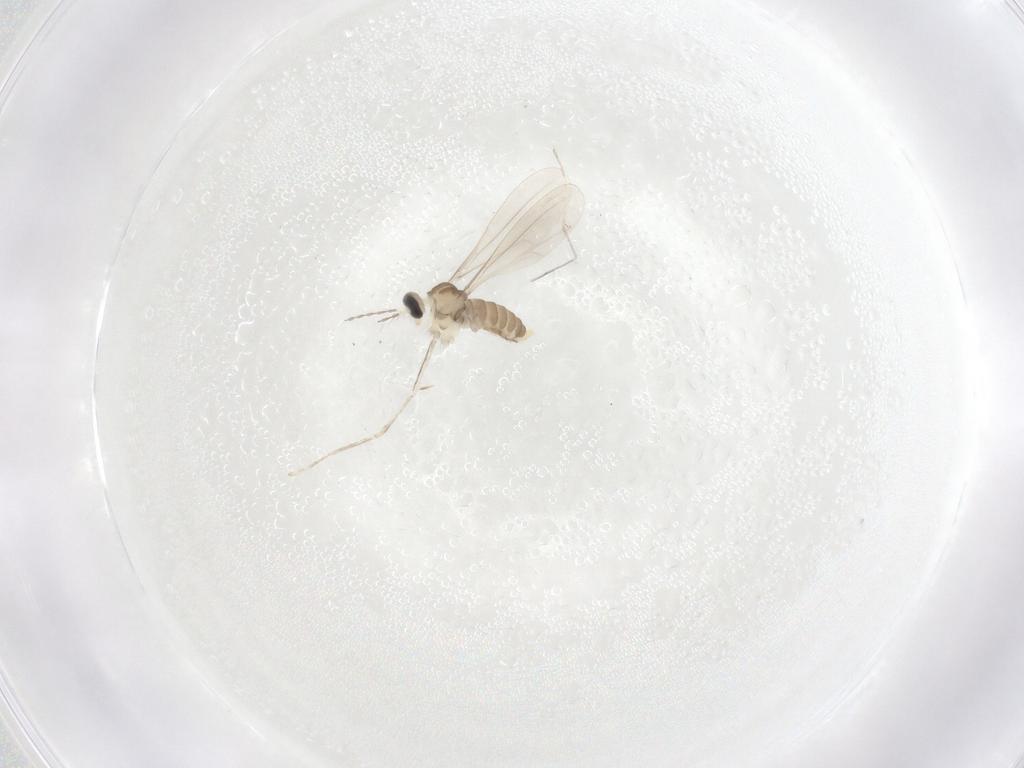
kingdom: Animalia
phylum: Arthropoda
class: Insecta
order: Diptera
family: Cecidomyiidae
